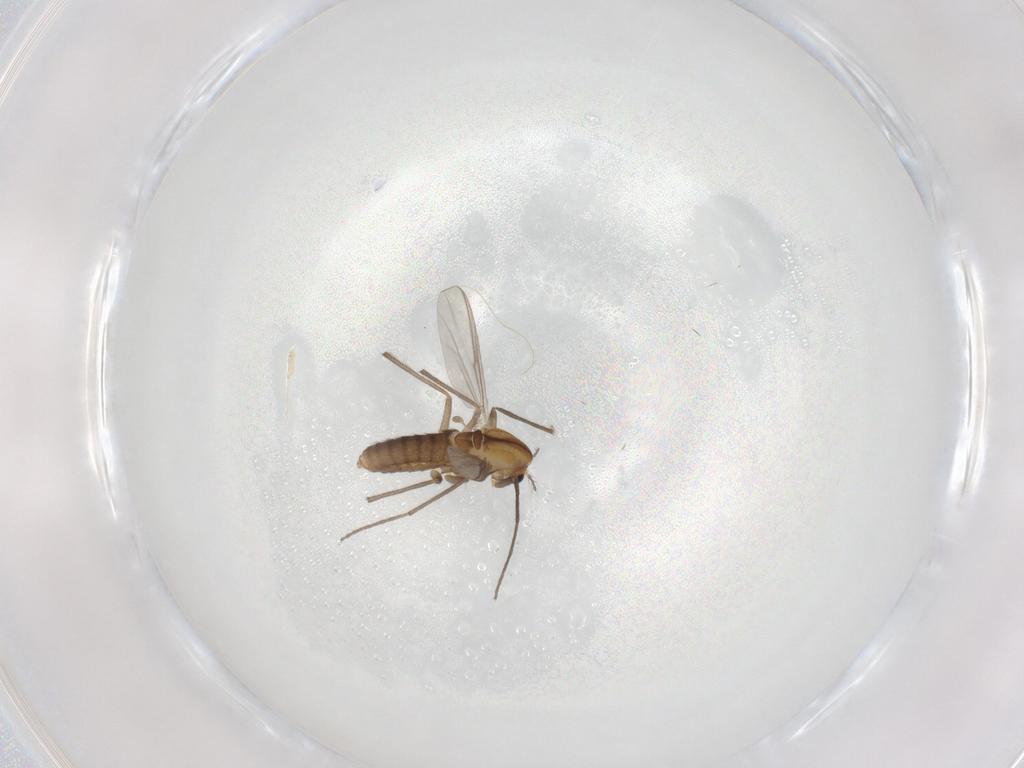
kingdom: Animalia
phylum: Arthropoda
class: Insecta
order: Diptera
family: Chironomidae
